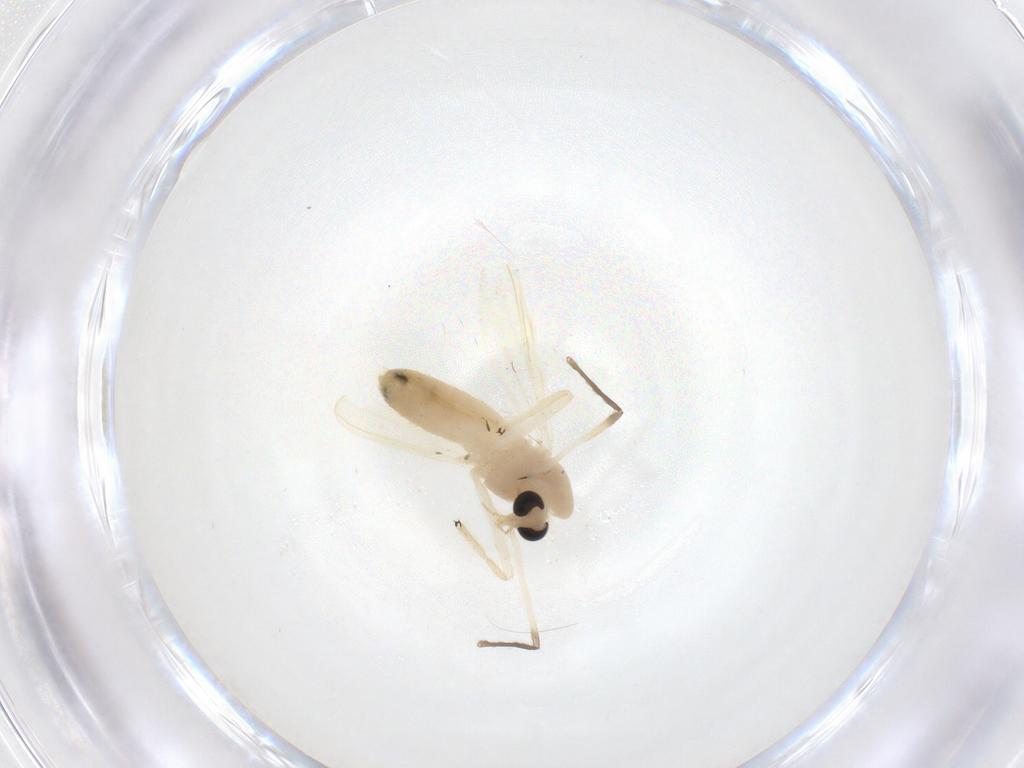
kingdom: Animalia
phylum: Arthropoda
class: Insecta
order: Diptera
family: Chironomidae
